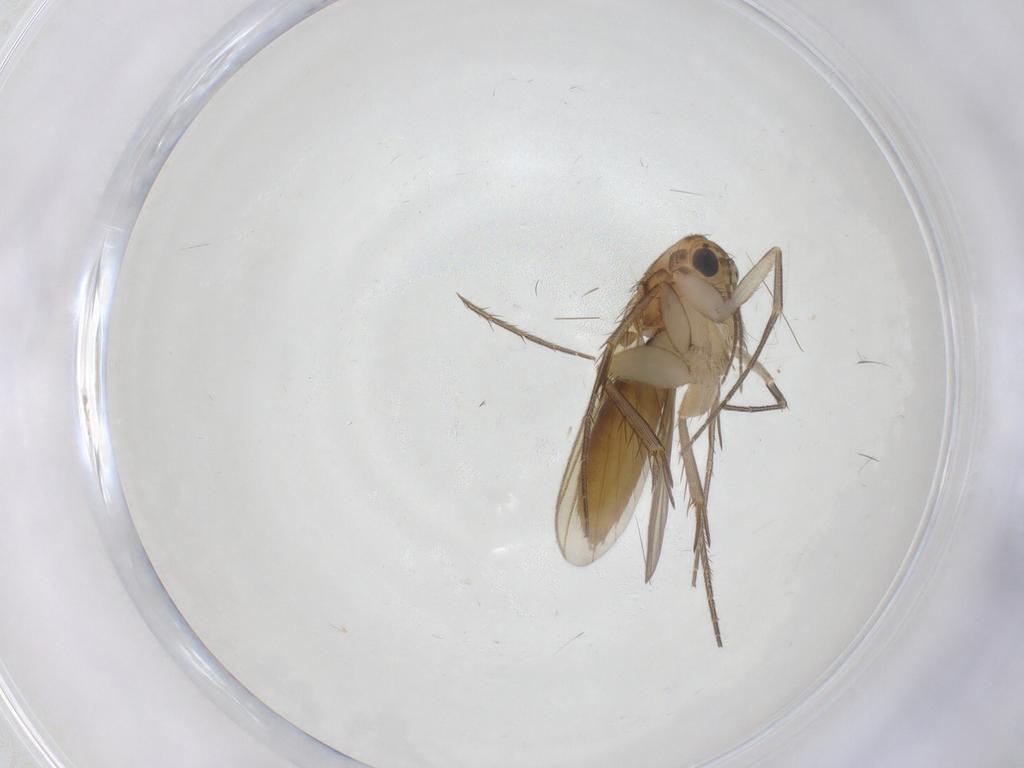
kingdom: Animalia
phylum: Arthropoda
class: Insecta
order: Diptera
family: Mycetophilidae
